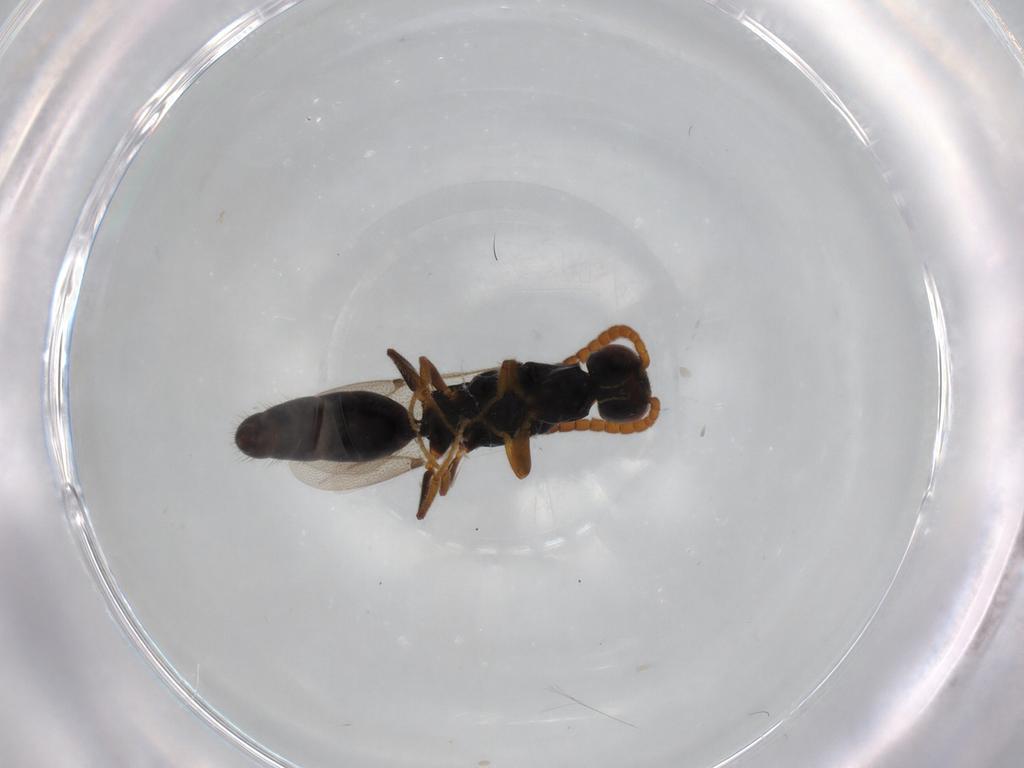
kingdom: Animalia
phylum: Arthropoda
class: Insecta
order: Hymenoptera
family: Bethylidae
